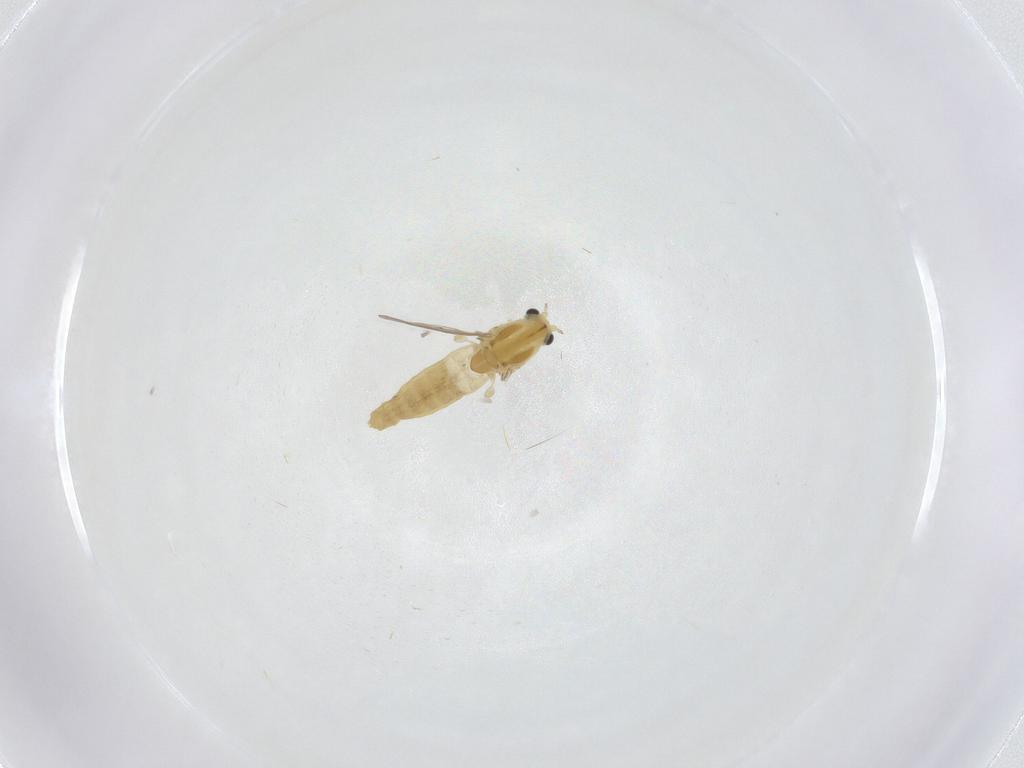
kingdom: Animalia
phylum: Arthropoda
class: Insecta
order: Diptera
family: Chironomidae
